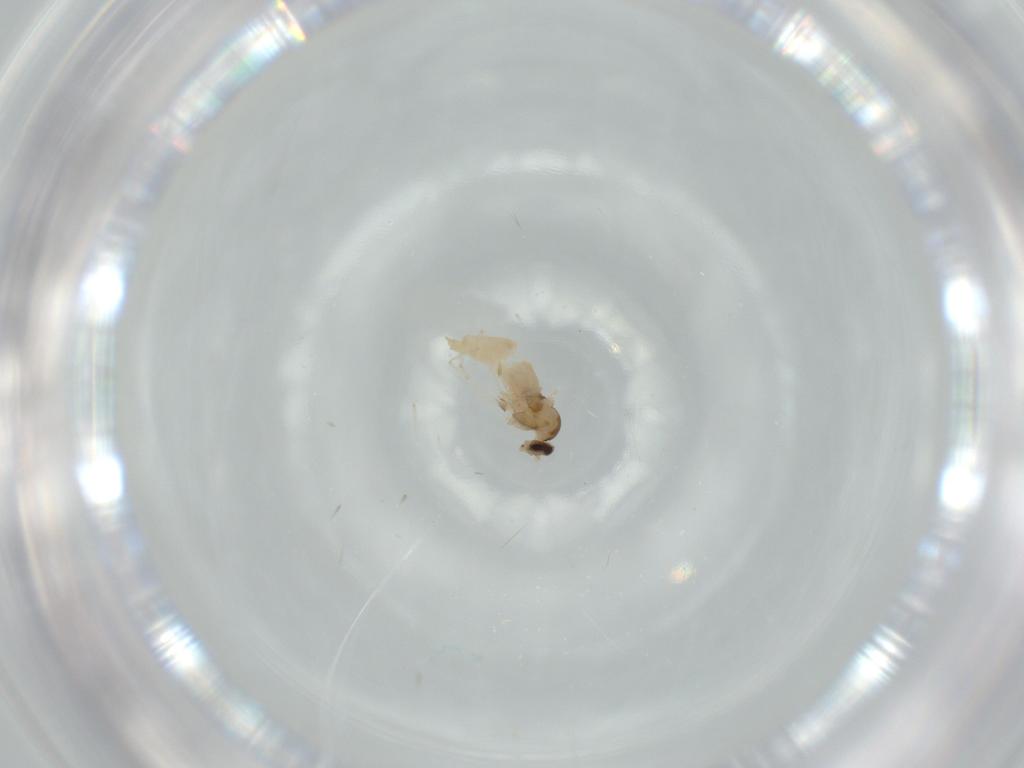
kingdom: Animalia
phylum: Arthropoda
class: Insecta
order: Diptera
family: Cecidomyiidae
